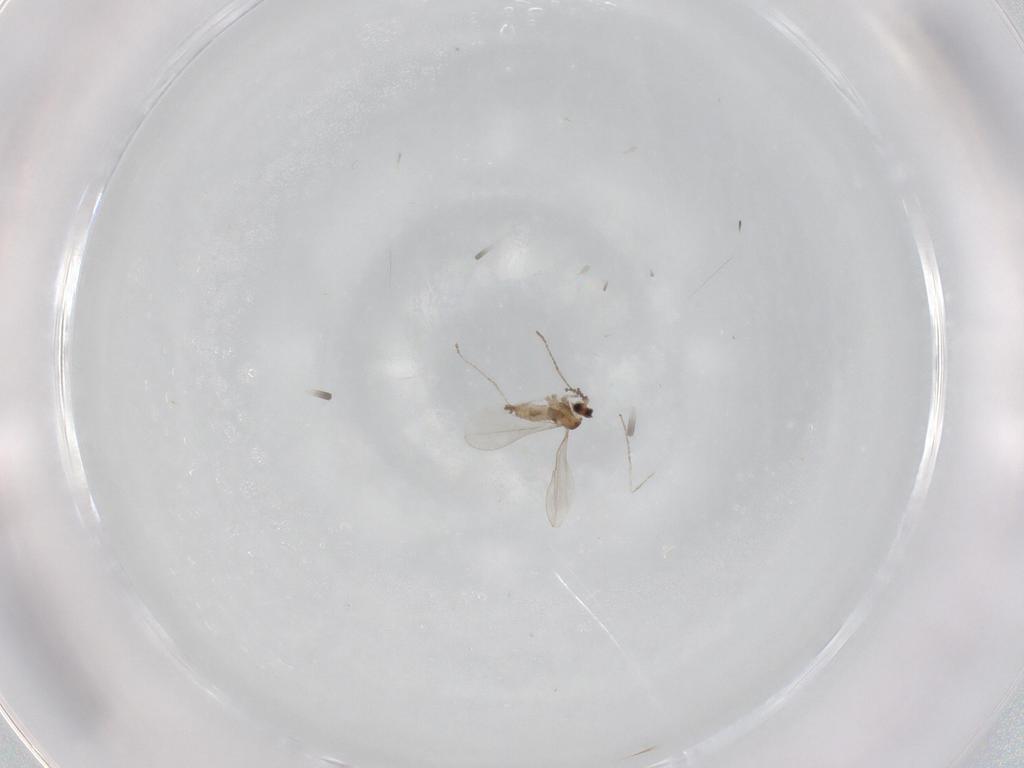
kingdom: Animalia
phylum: Arthropoda
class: Insecta
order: Diptera
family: Cecidomyiidae
